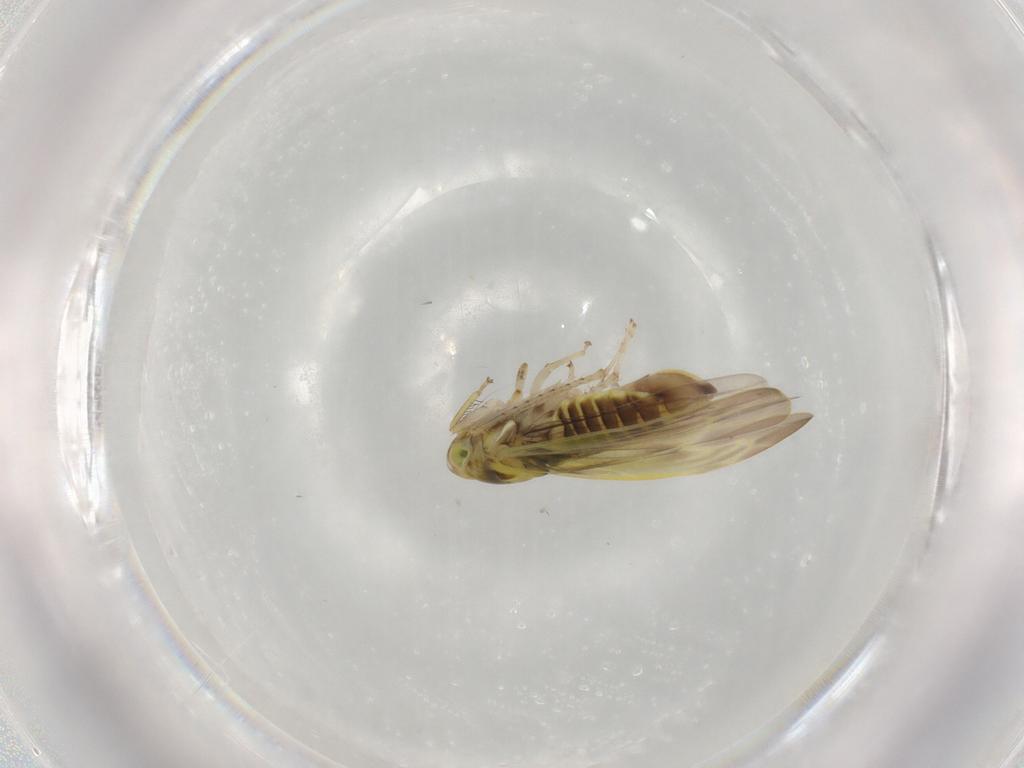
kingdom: Animalia
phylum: Arthropoda
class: Insecta
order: Hemiptera
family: Cicadellidae
